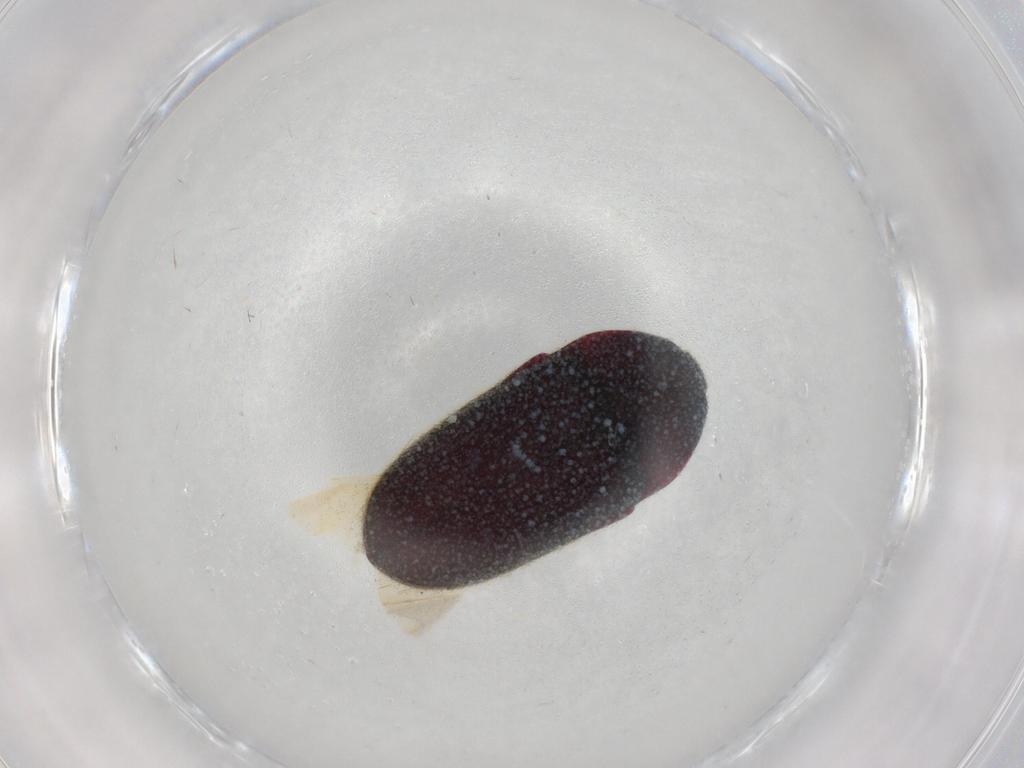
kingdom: Animalia
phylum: Arthropoda
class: Insecta
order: Coleoptera
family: Throscidae
